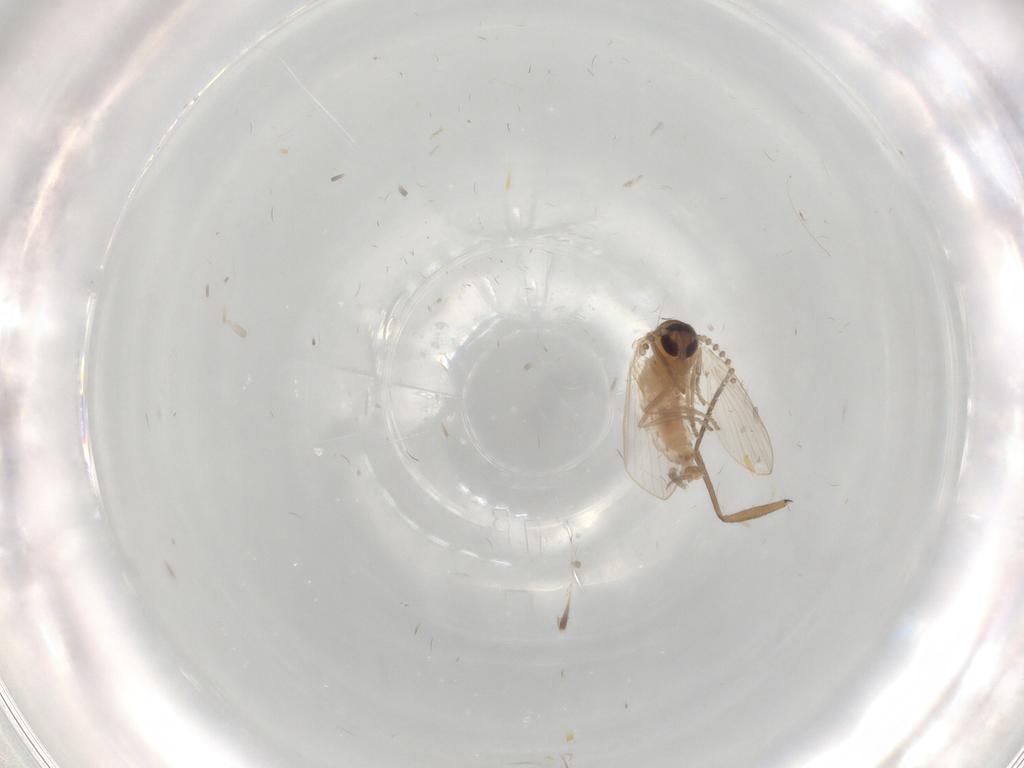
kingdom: Animalia
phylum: Arthropoda
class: Insecta
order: Diptera
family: Psychodidae
